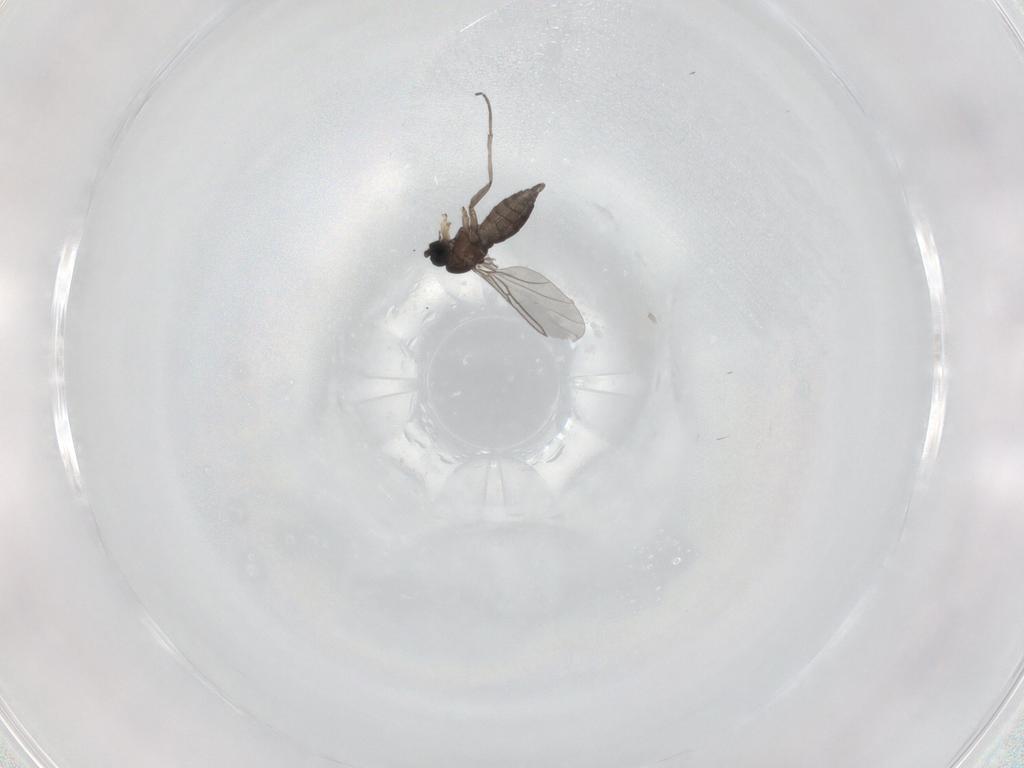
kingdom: Animalia
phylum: Arthropoda
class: Insecta
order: Diptera
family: Sciaridae
